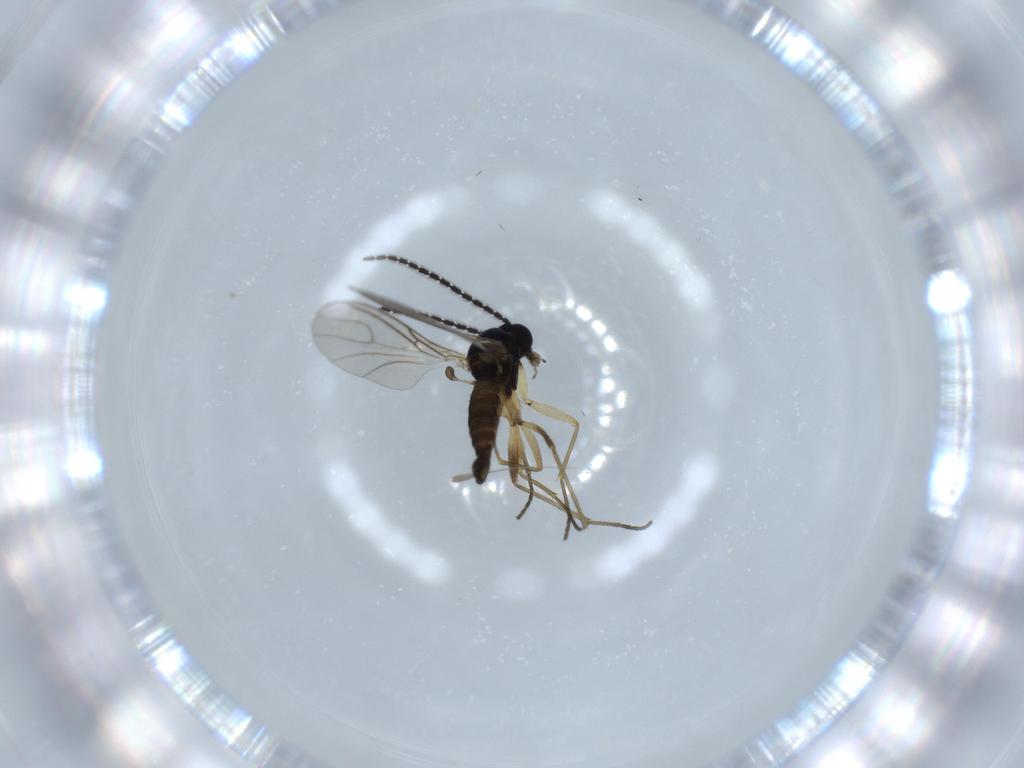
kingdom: Animalia
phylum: Arthropoda
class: Insecta
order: Diptera
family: Sciaridae
